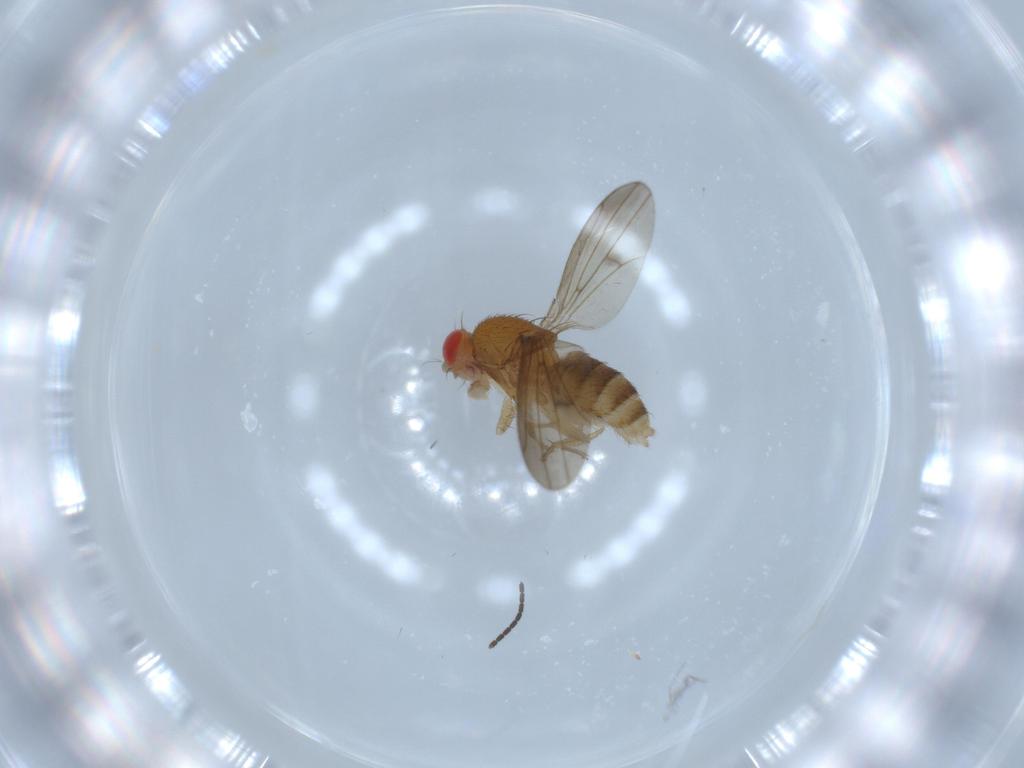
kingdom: Animalia
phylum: Arthropoda
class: Insecta
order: Diptera
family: Drosophilidae
